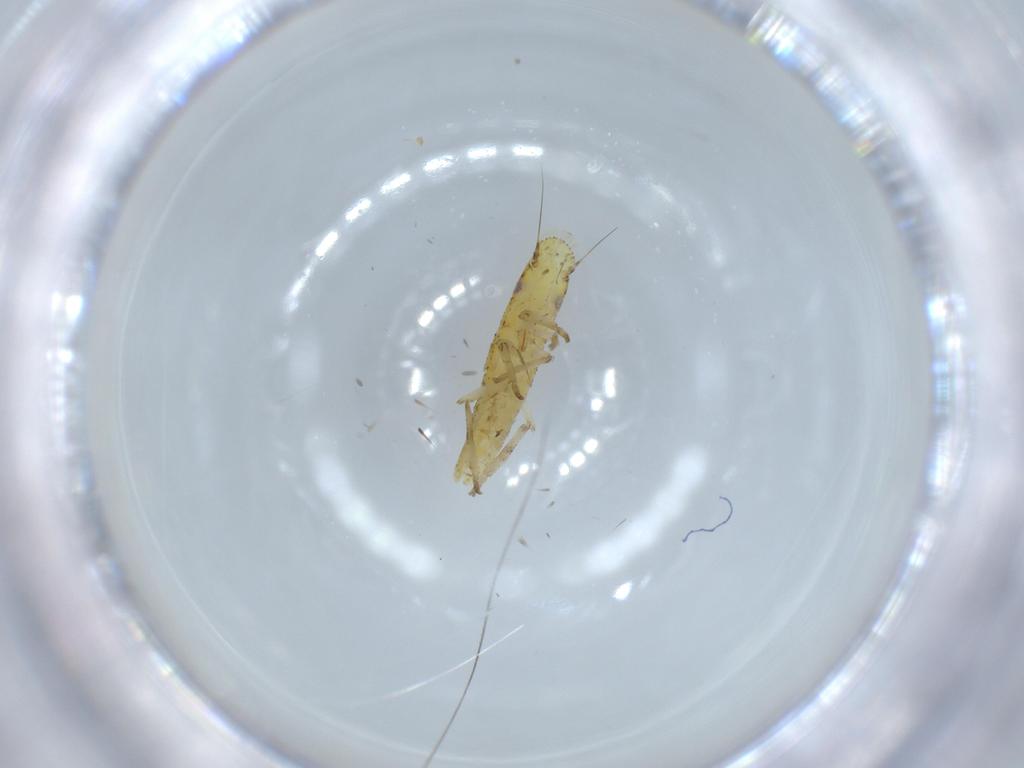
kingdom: Animalia
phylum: Arthropoda
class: Insecta
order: Hemiptera
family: Cicadellidae
